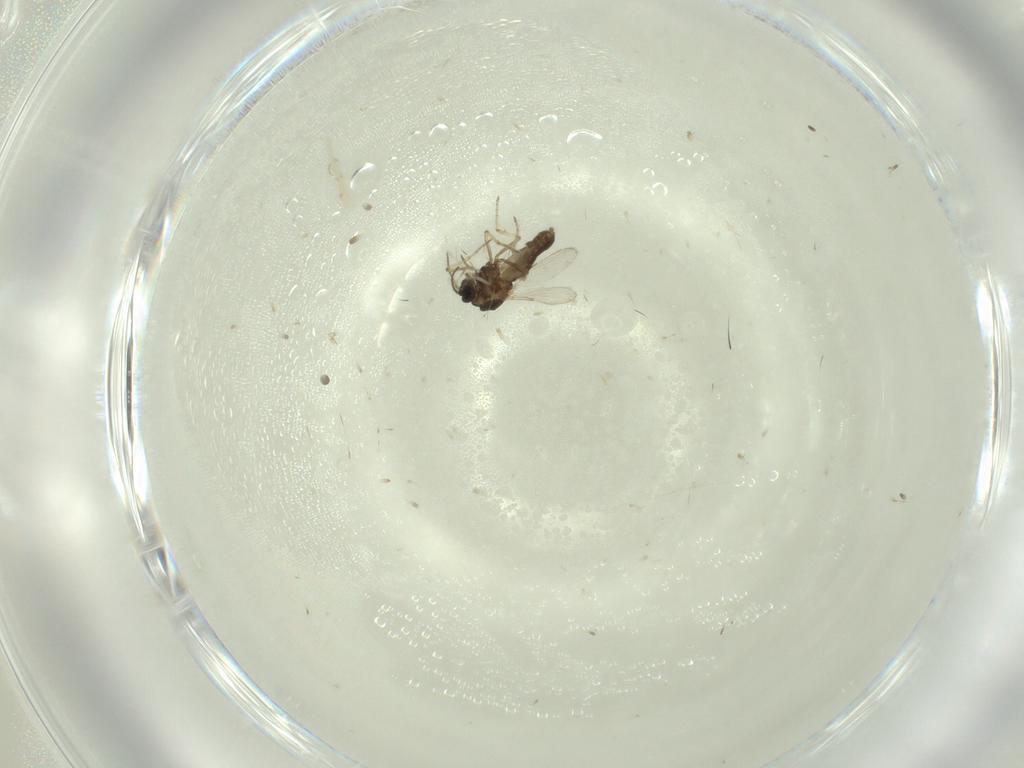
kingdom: Animalia
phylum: Arthropoda
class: Insecta
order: Diptera
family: Ceratopogonidae
